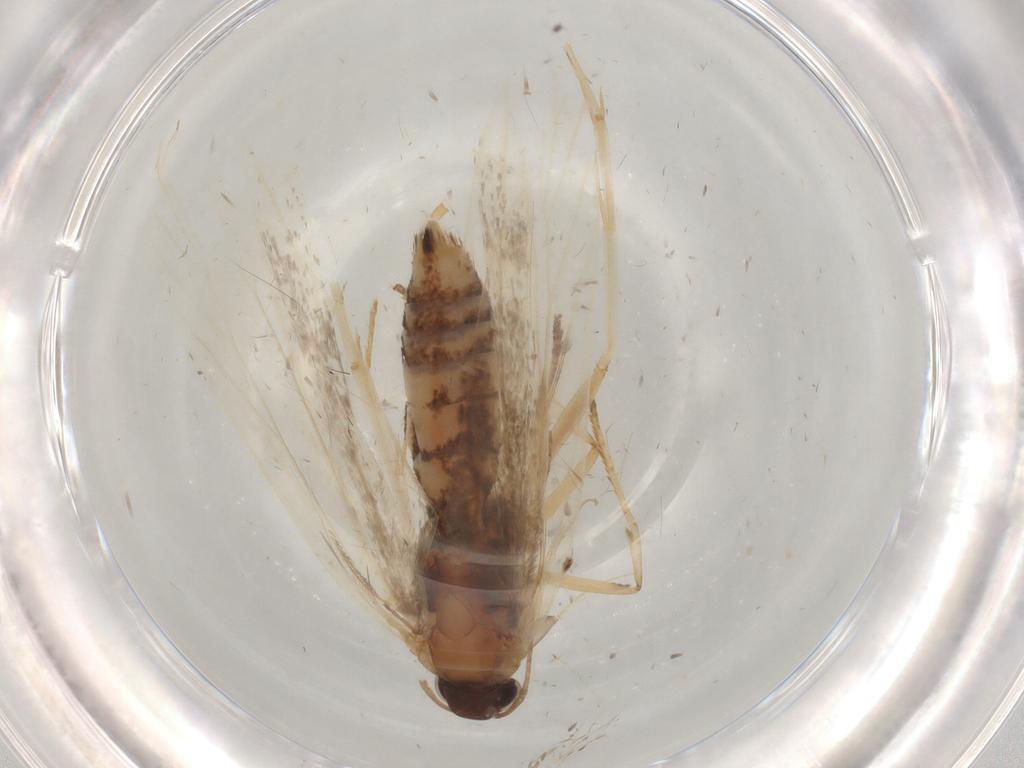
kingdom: Animalia
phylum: Arthropoda
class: Insecta
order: Lepidoptera
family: Gelechiidae
